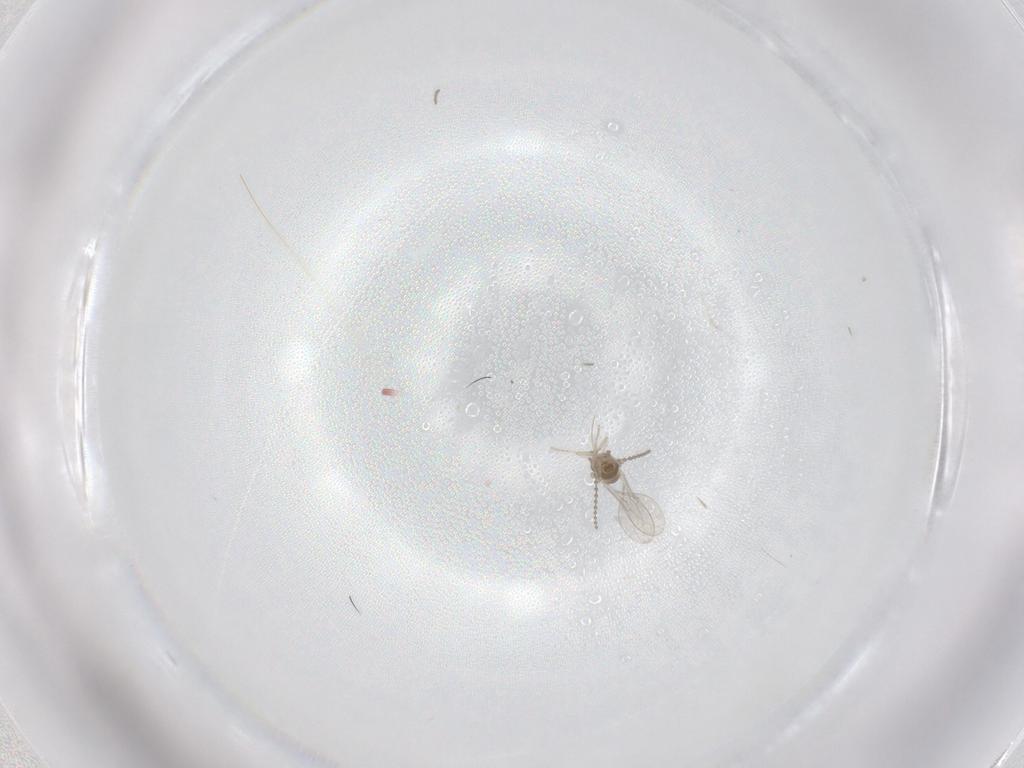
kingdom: Animalia
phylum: Arthropoda
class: Insecta
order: Diptera
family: Cecidomyiidae
